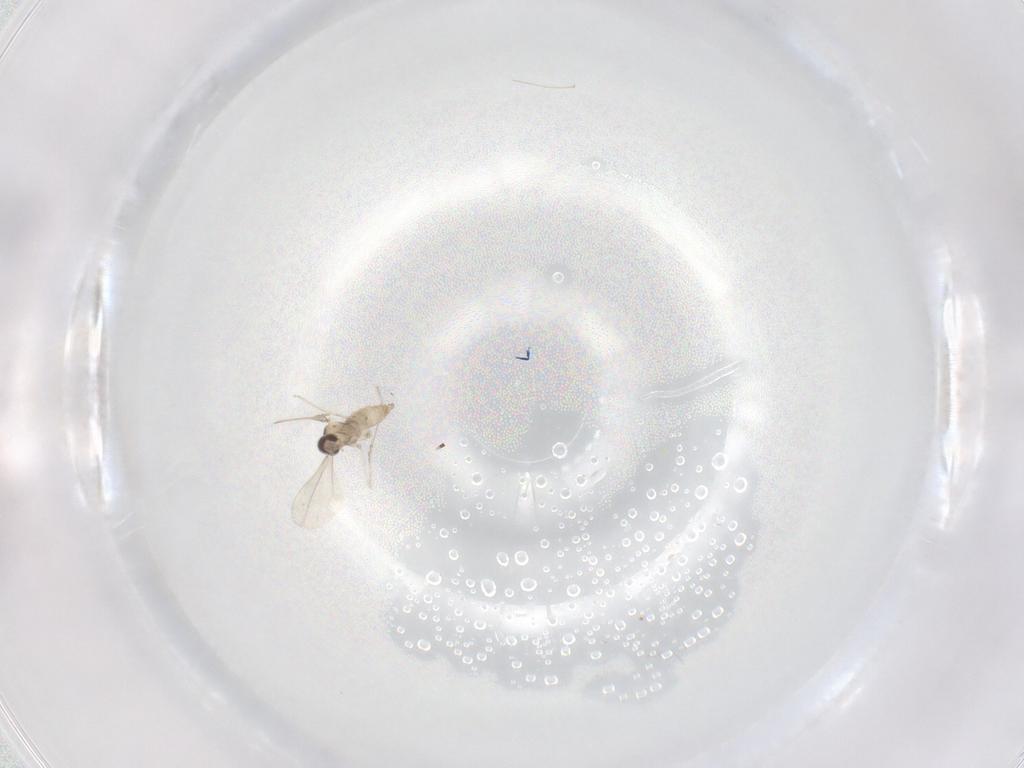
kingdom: Animalia
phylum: Arthropoda
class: Insecta
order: Diptera
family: Cecidomyiidae
